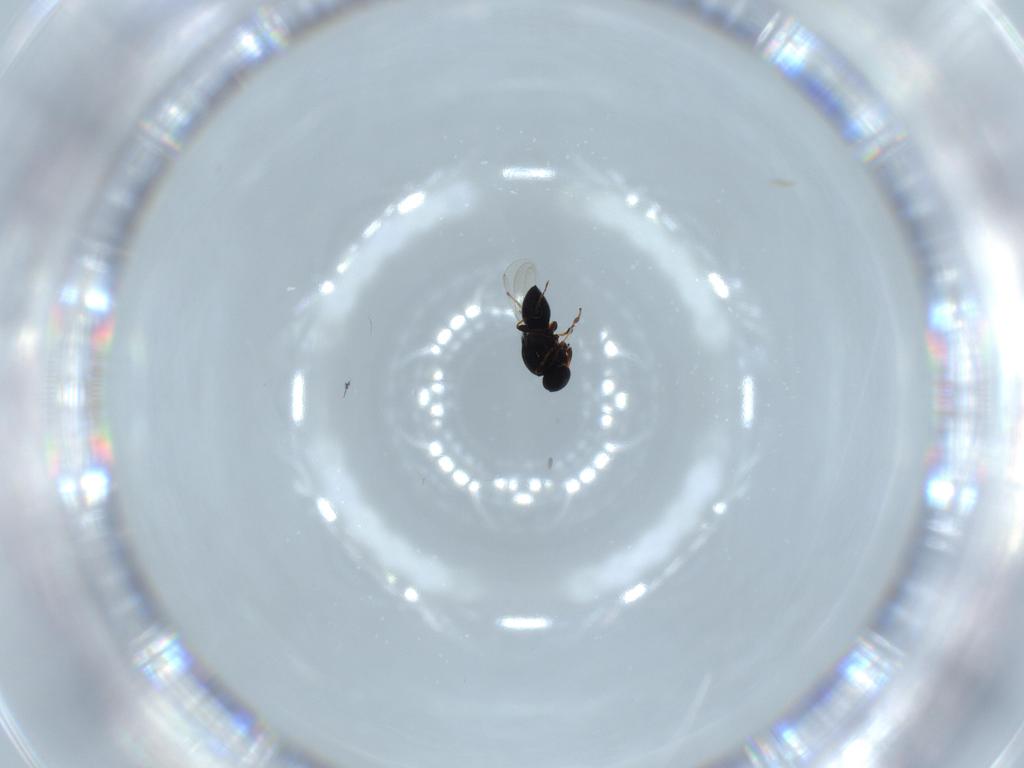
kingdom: Animalia
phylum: Arthropoda
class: Insecta
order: Hymenoptera
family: Platygastridae
